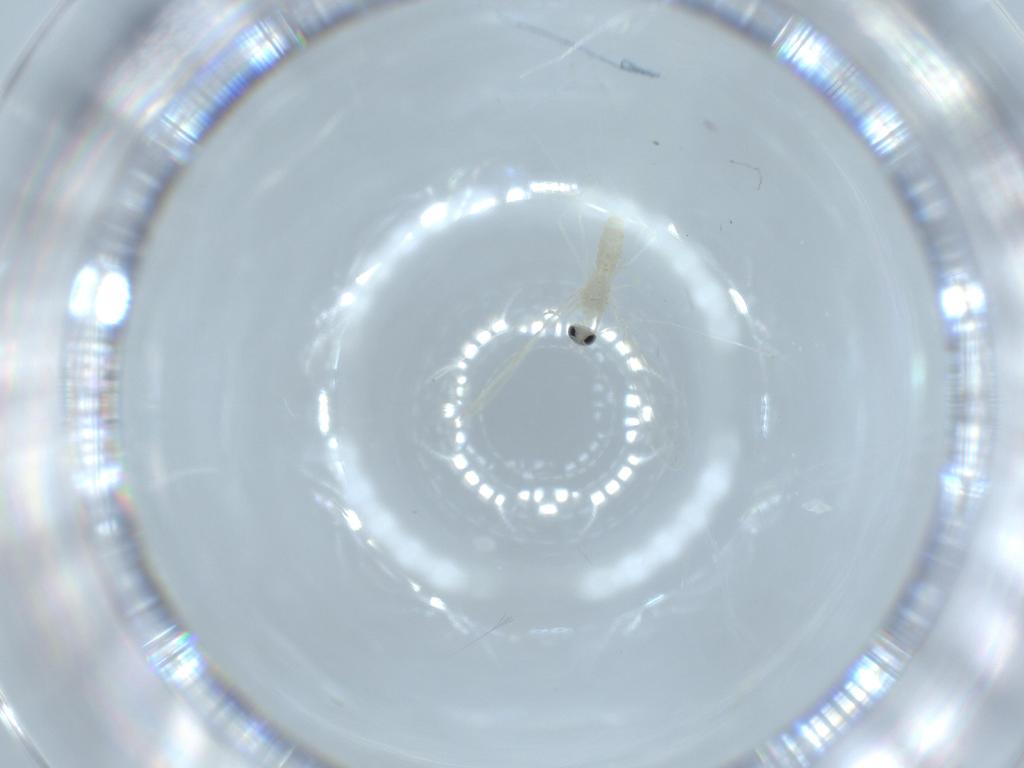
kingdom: Animalia
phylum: Arthropoda
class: Insecta
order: Diptera
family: Cecidomyiidae
